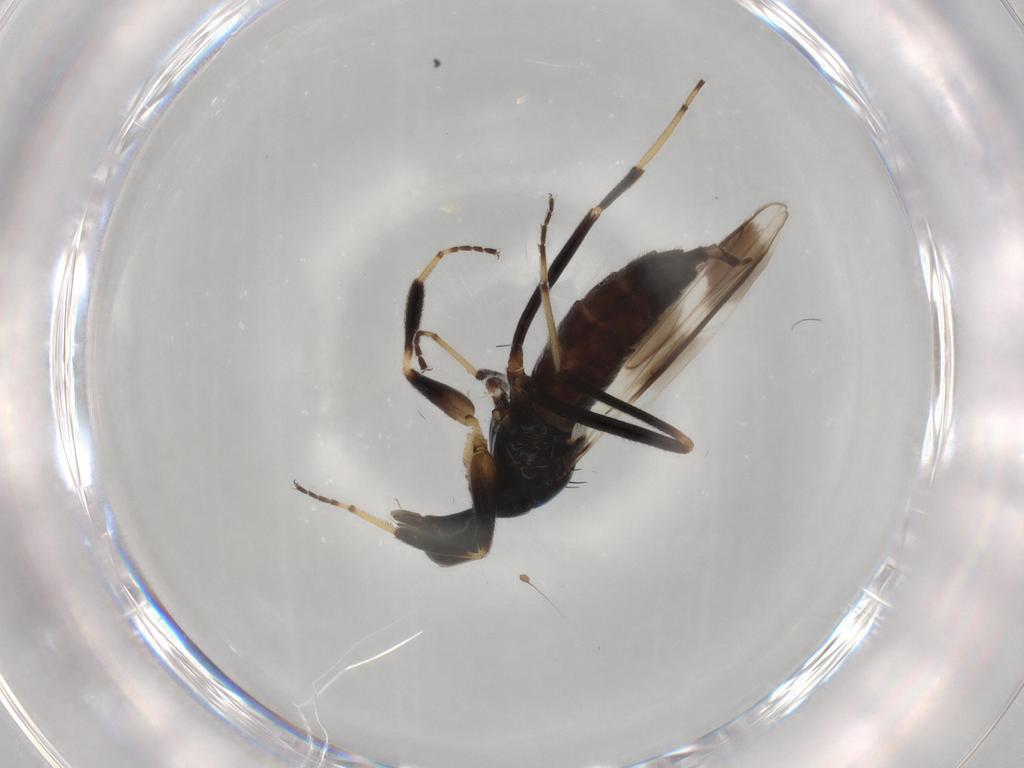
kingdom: Animalia
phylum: Arthropoda
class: Insecta
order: Diptera
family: Hybotidae
